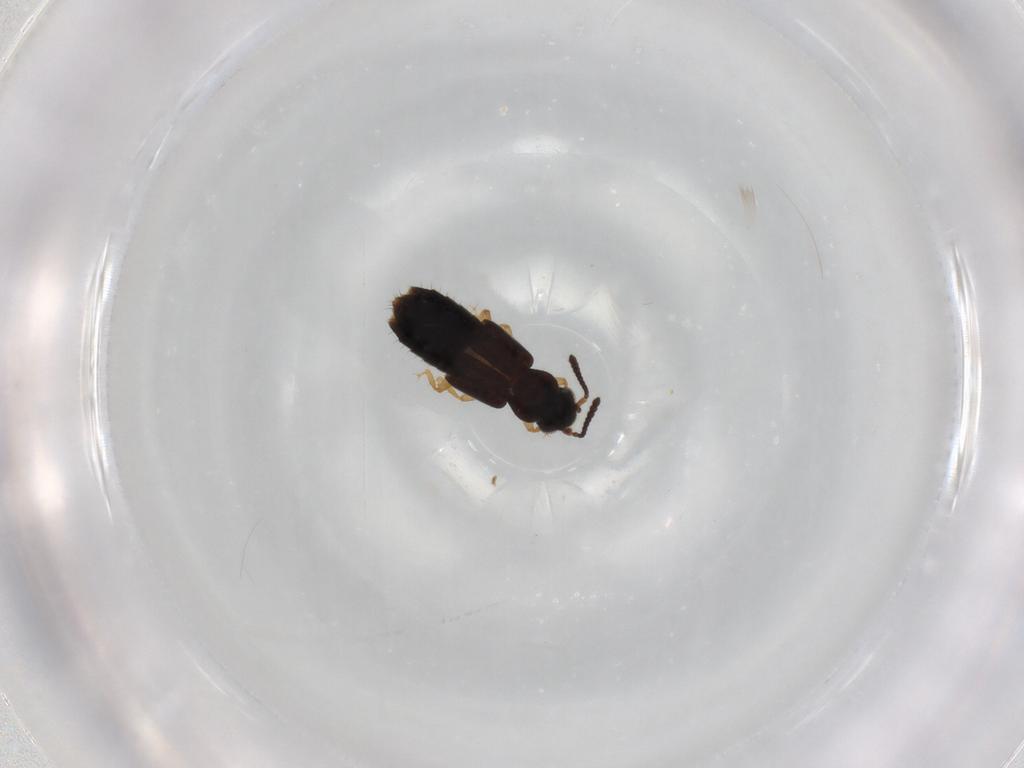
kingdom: Animalia
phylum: Arthropoda
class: Insecta
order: Coleoptera
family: Staphylinidae
